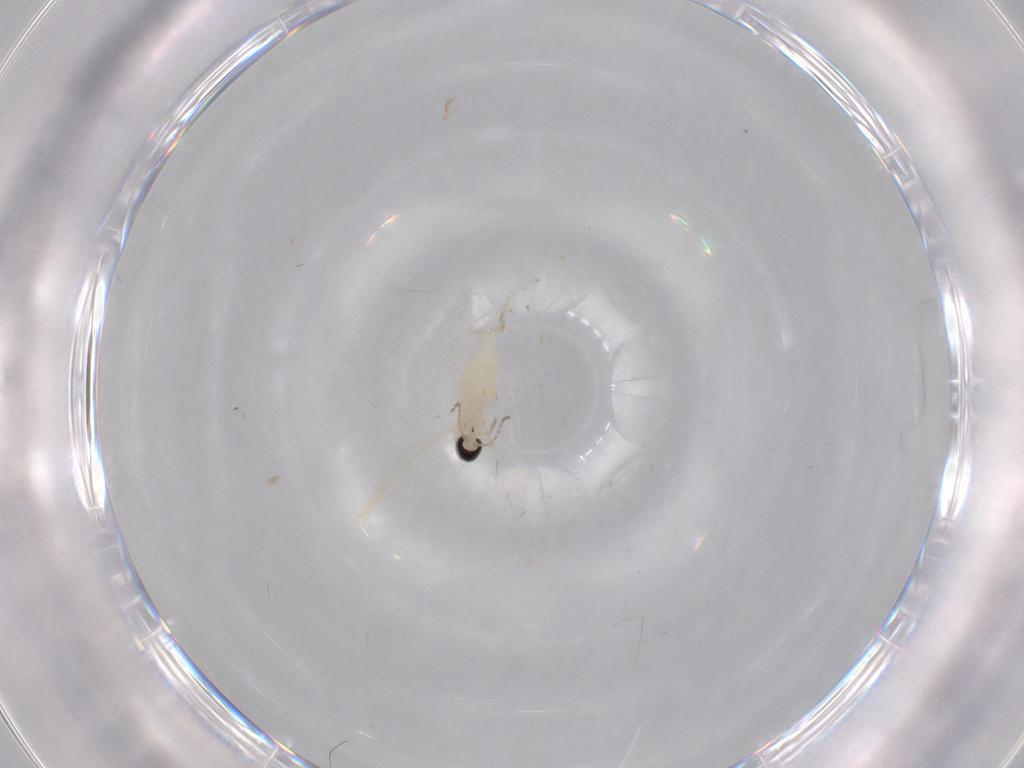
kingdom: Animalia
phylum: Arthropoda
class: Insecta
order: Diptera
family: Cecidomyiidae
